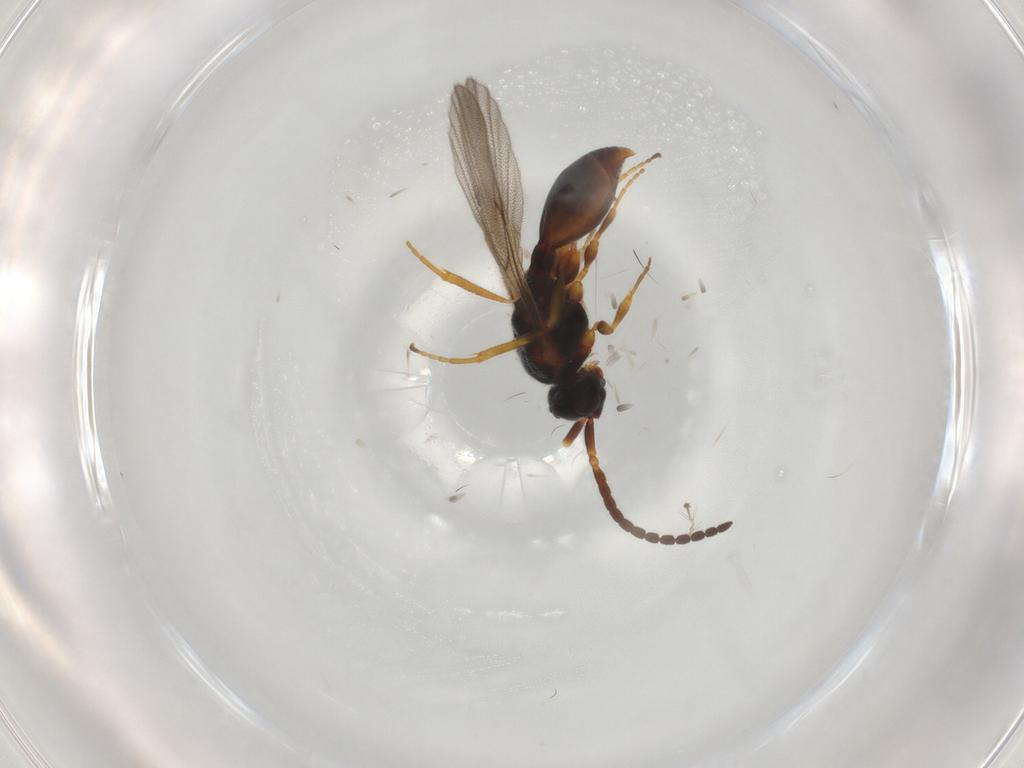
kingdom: Animalia
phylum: Arthropoda
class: Insecta
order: Hymenoptera
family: Diapriidae
